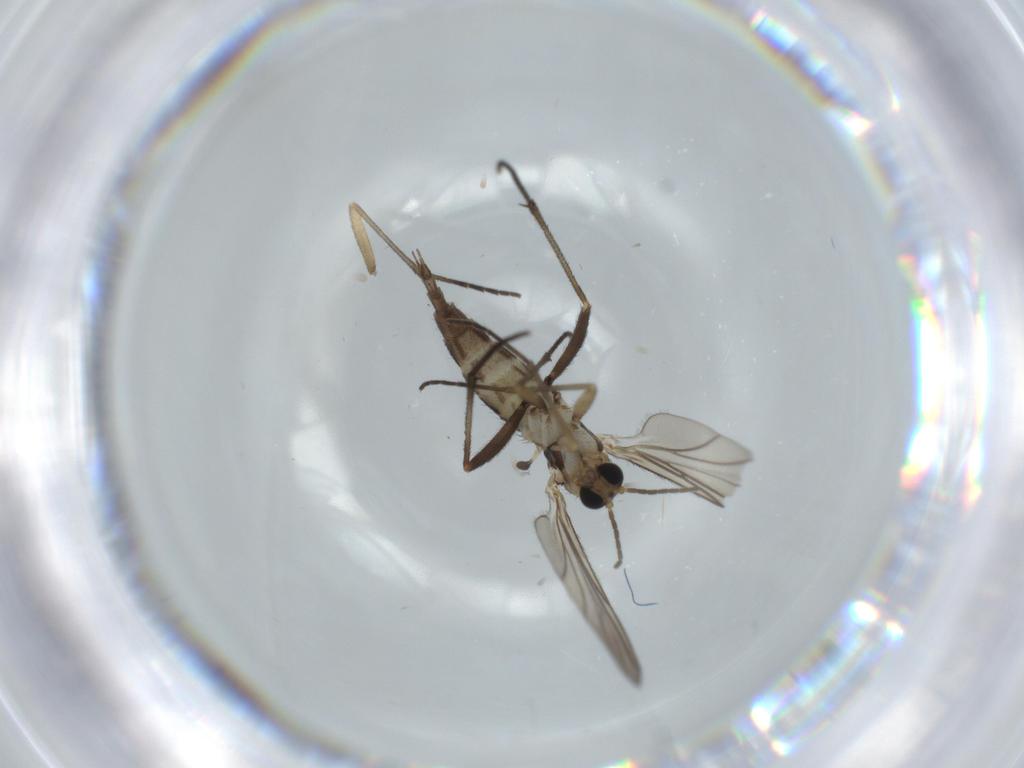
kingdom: Animalia
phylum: Arthropoda
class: Insecta
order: Diptera
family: Sciaridae
